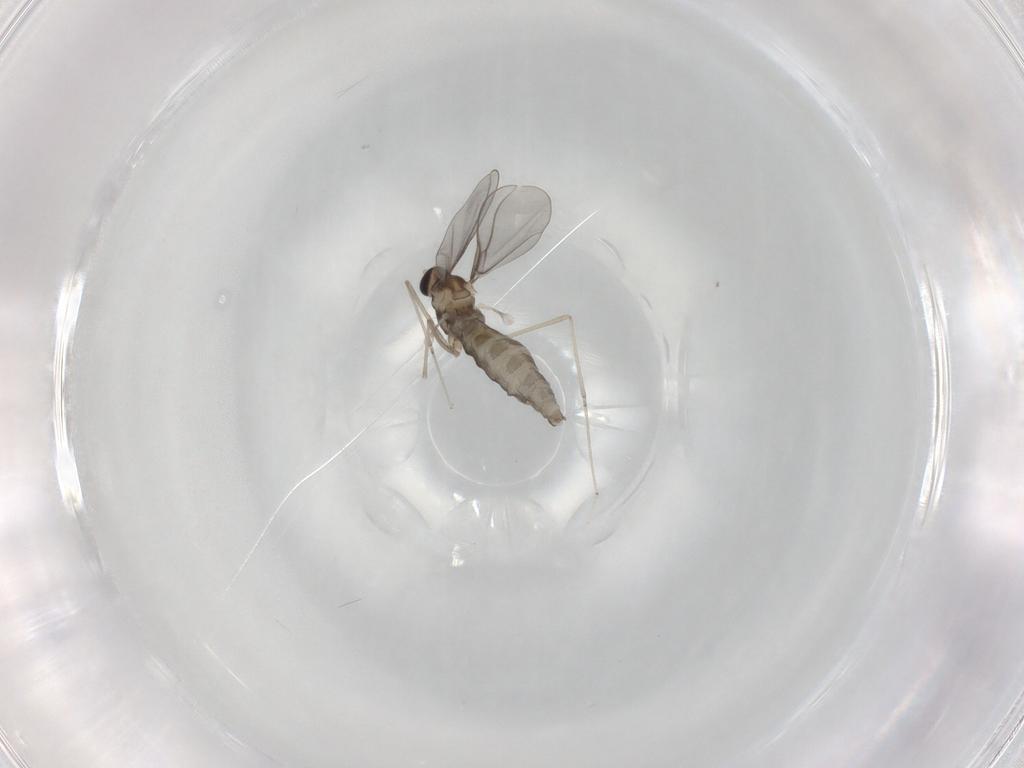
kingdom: Animalia
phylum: Arthropoda
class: Insecta
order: Diptera
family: Cecidomyiidae
